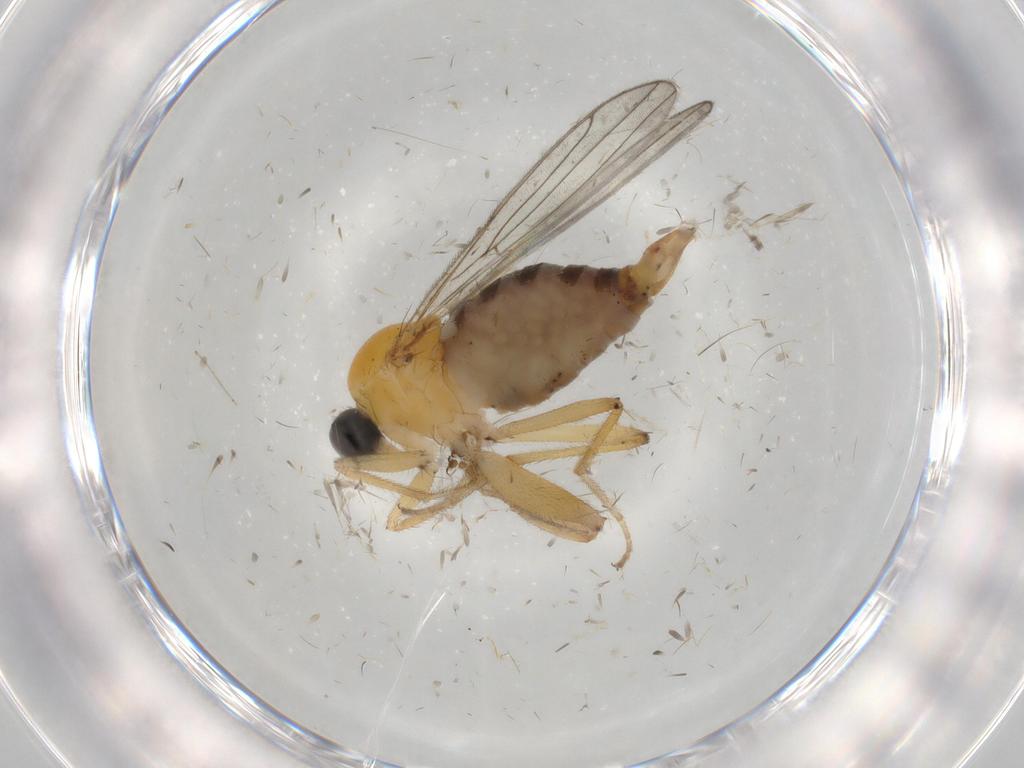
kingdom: Animalia
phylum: Arthropoda
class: Insecta
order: Diptera
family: Hybotidae
